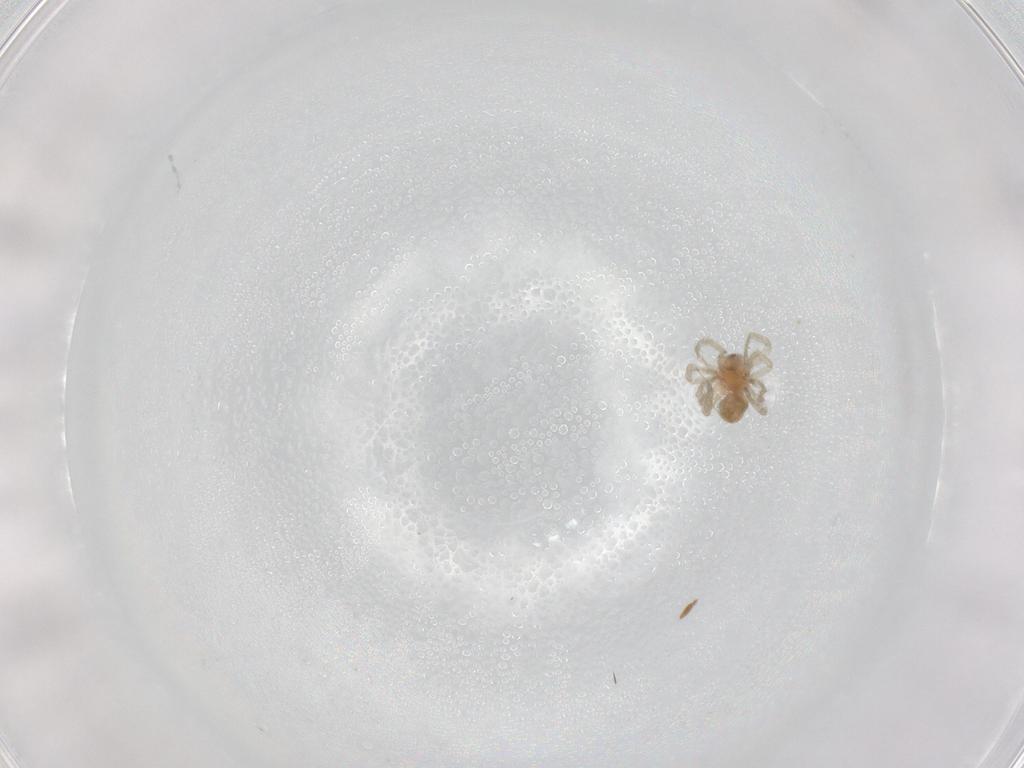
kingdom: Animalia
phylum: Arthropoda
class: Arachnida
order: Araneae
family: Dictynidae
